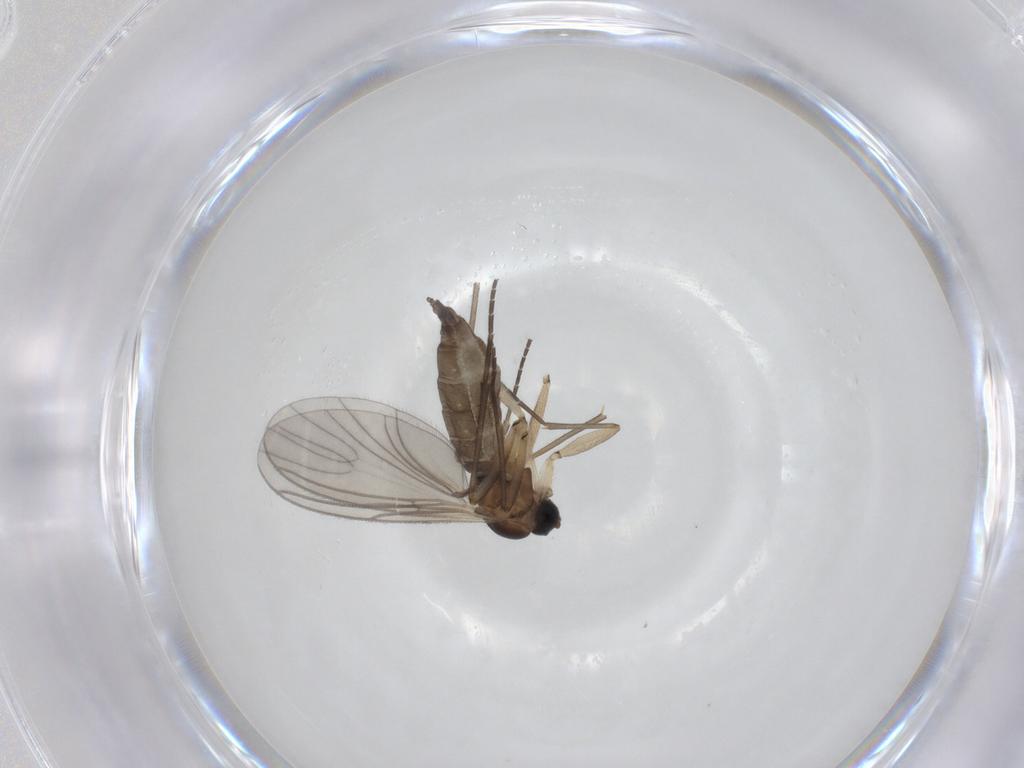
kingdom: Animalia
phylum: Arthropoda
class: Insecta
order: Diptera
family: Sciaridae
